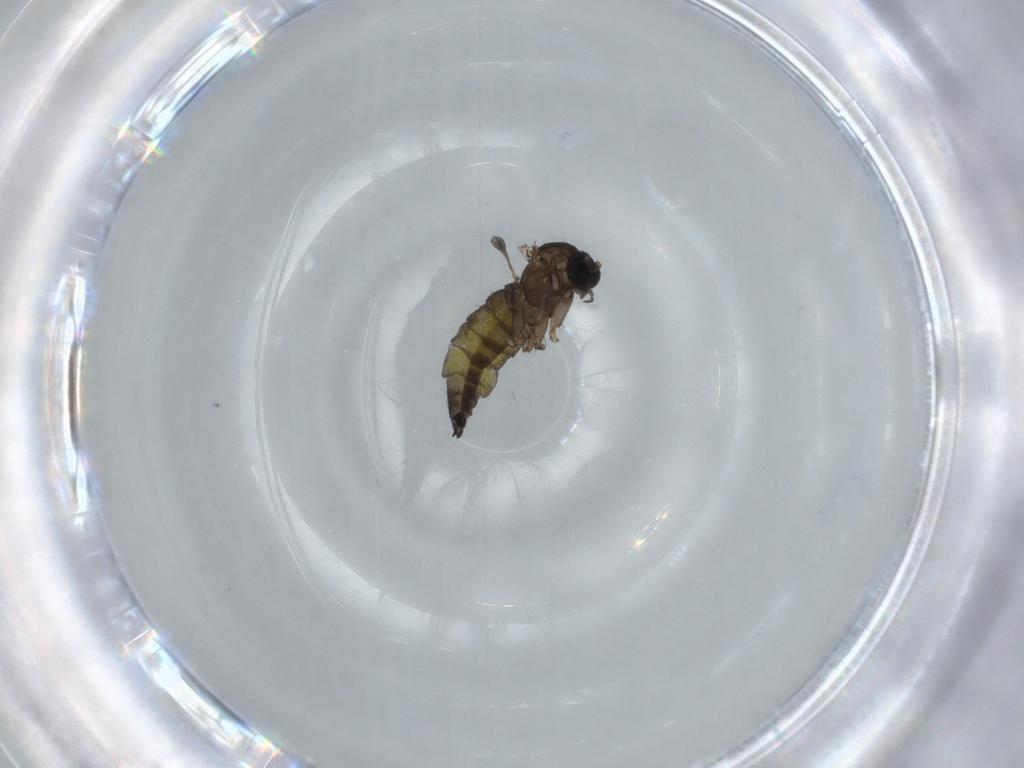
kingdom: Animalia
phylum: Arthropoda
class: Insecta
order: Diptera
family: Sciaridae
